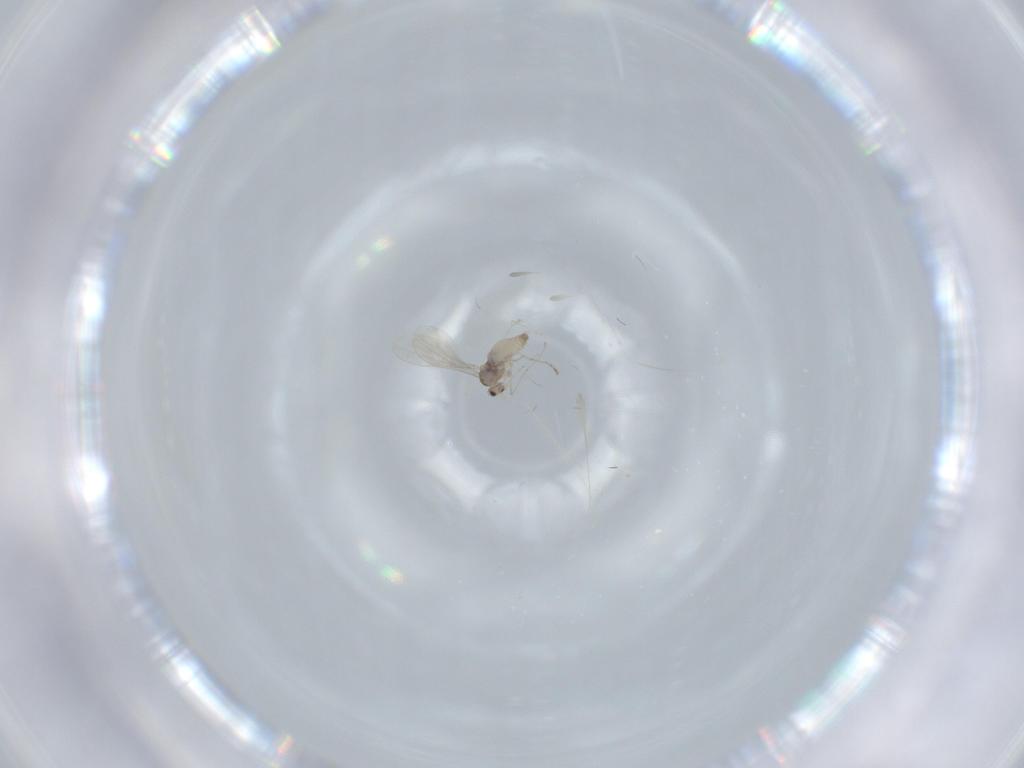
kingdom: Animalia
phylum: Arthropoda
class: Insecta
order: Diptera
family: Cecidomyiidae
